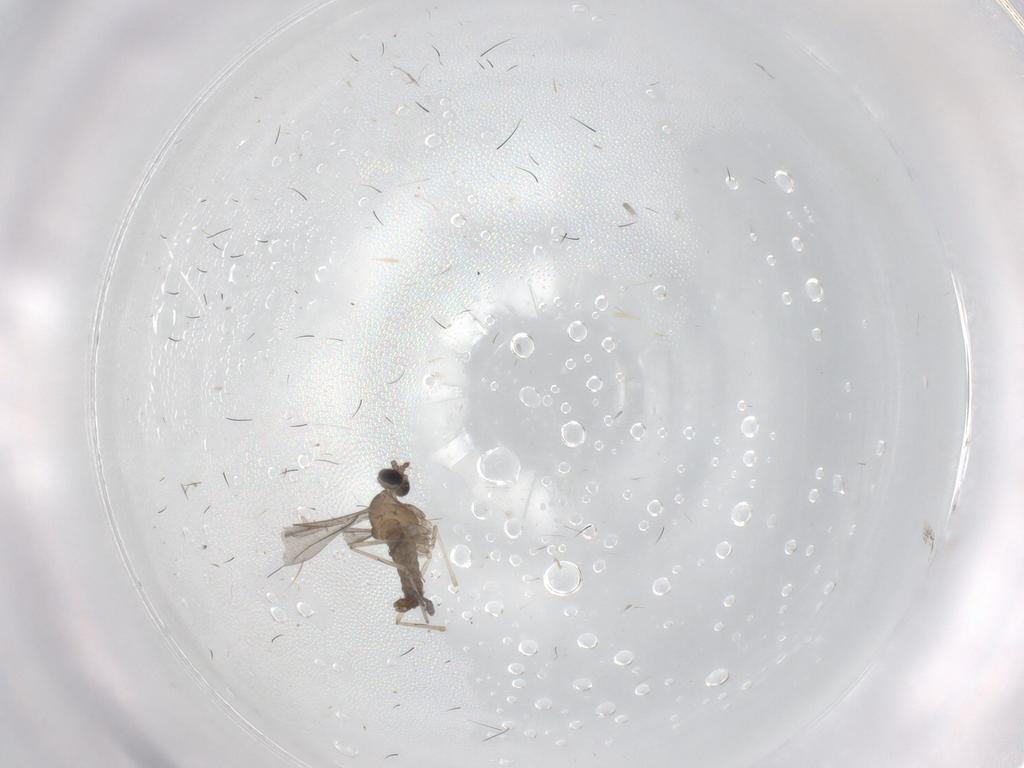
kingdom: Animalia
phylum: Arthropoda
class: Insecta
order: Diptera
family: Sciaridae
